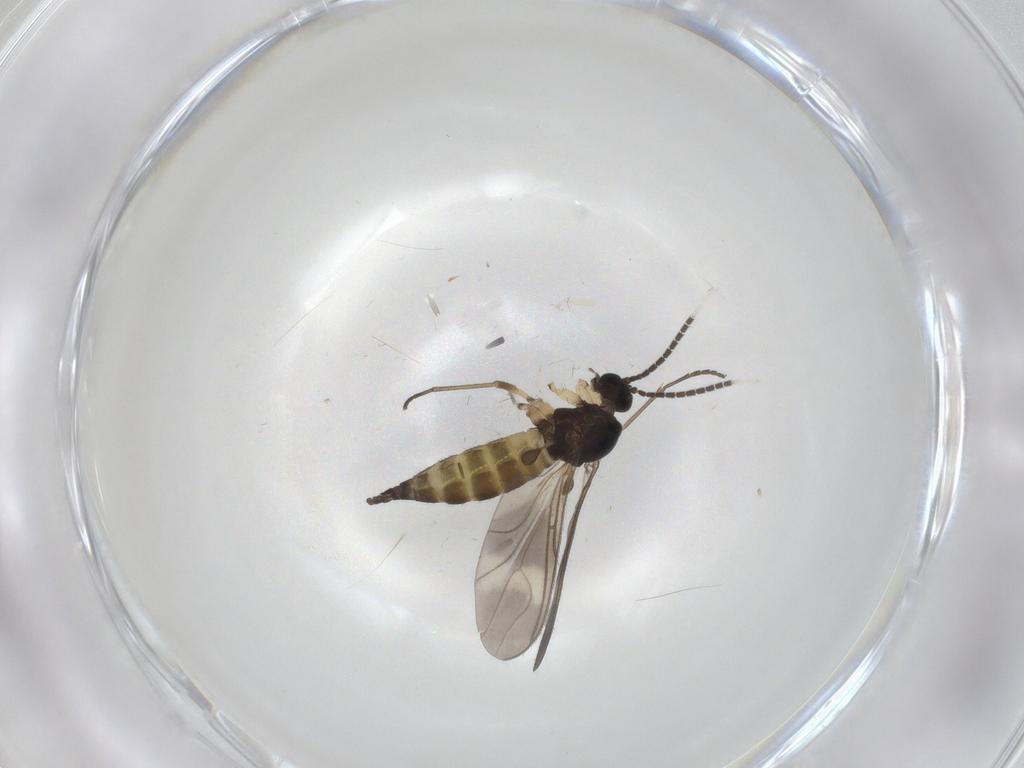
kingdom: Animalia
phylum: Arthropoda
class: Insecta
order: Diptera
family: Sciaridae
